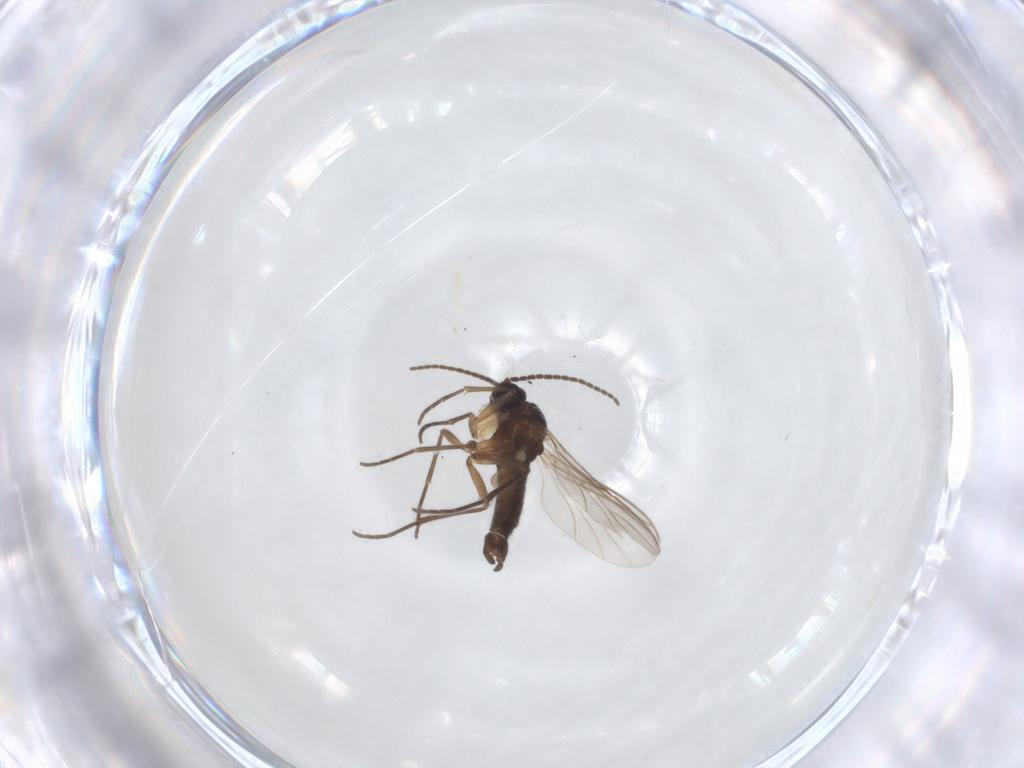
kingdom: Animalia
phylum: Arthropoda
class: Insecta
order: Diptera
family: Sciaridae
